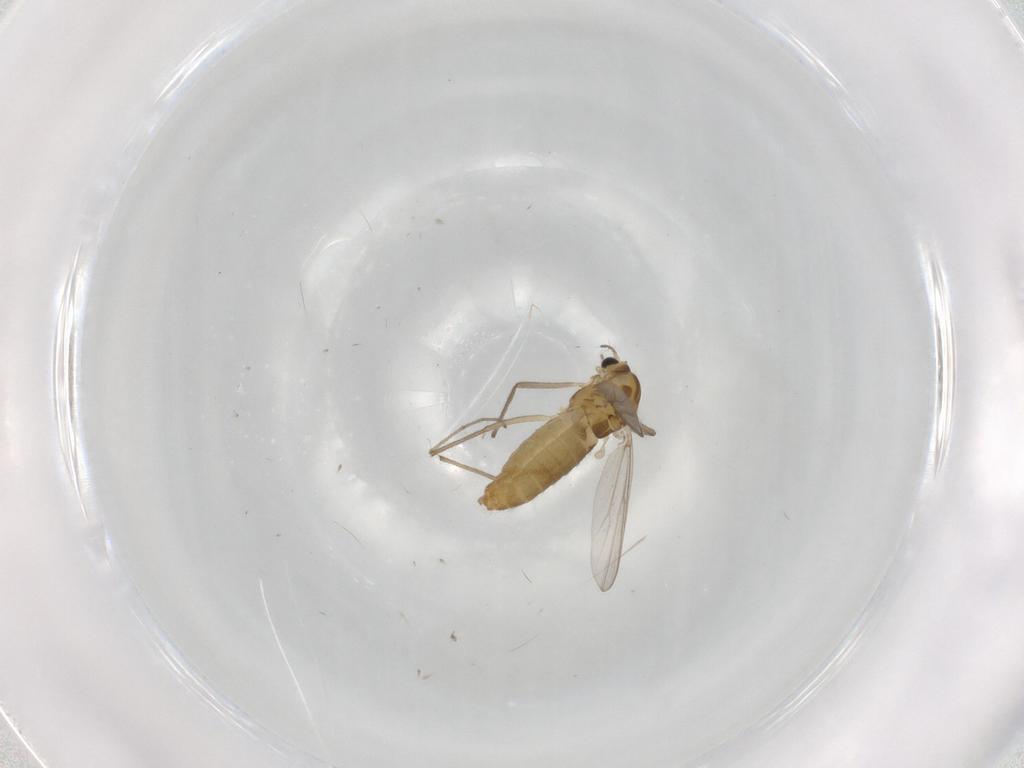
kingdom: Animalia
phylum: Arthropoda
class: Insecta
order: Diptera
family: Chironomidae
